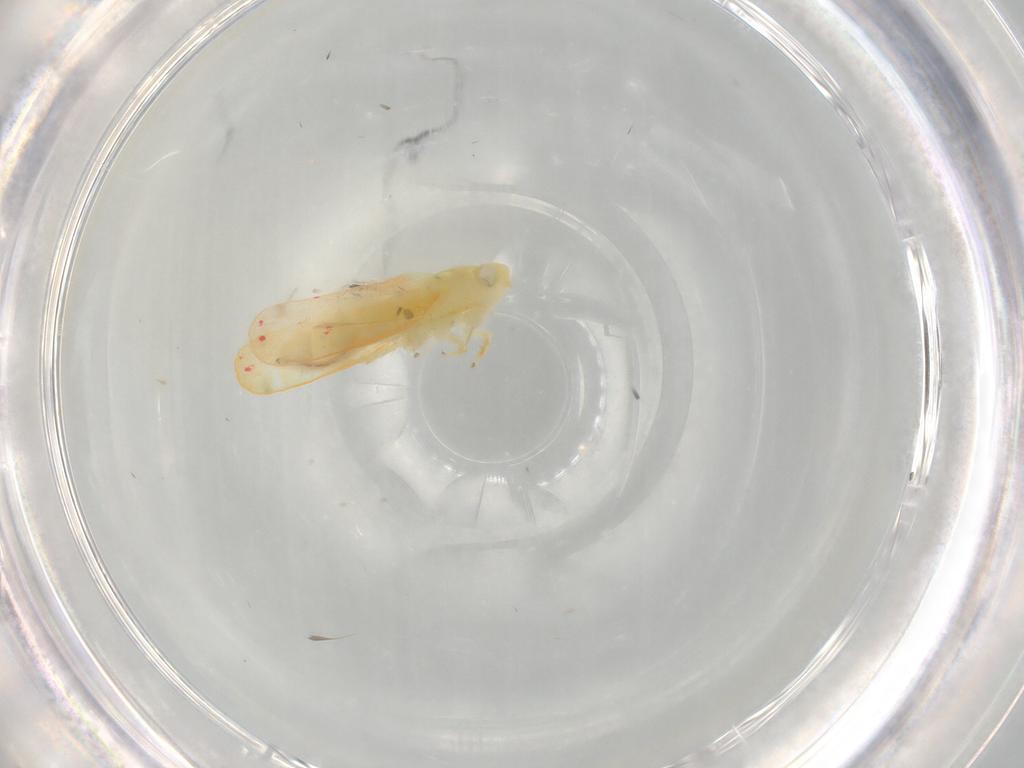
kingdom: Animalia
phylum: Arthropoda
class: Insecta
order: Hemiptera
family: Cicadellidae
